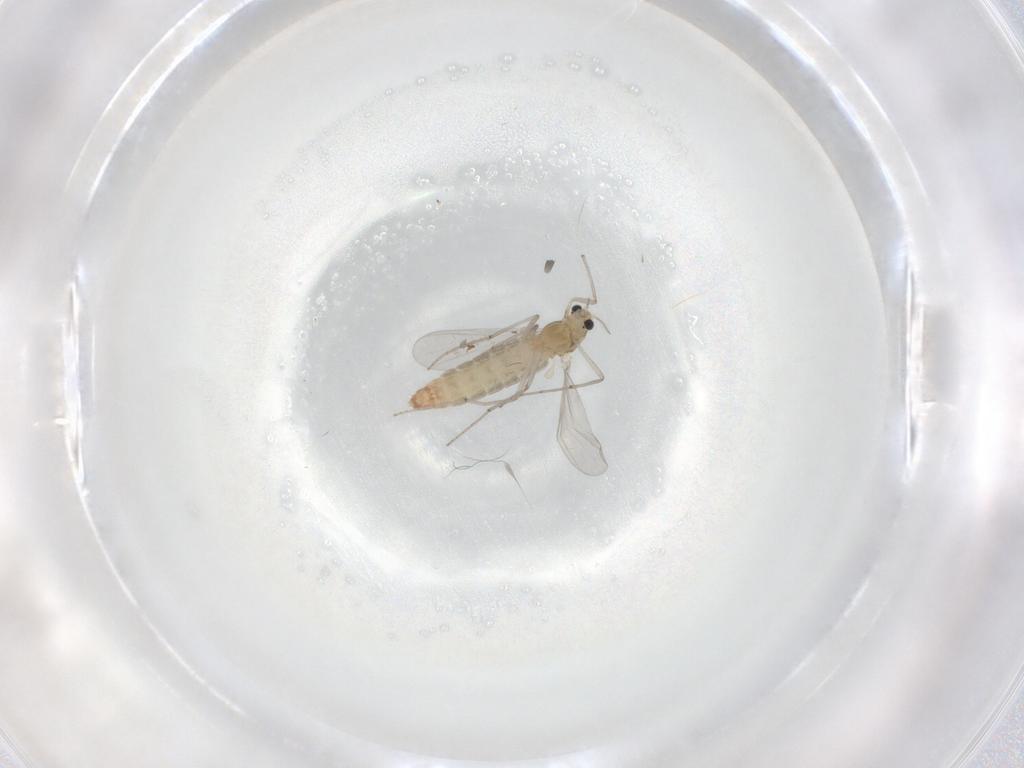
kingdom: Animalia
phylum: Arthropoda
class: Insecta
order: Diptera
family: Chironomidae
